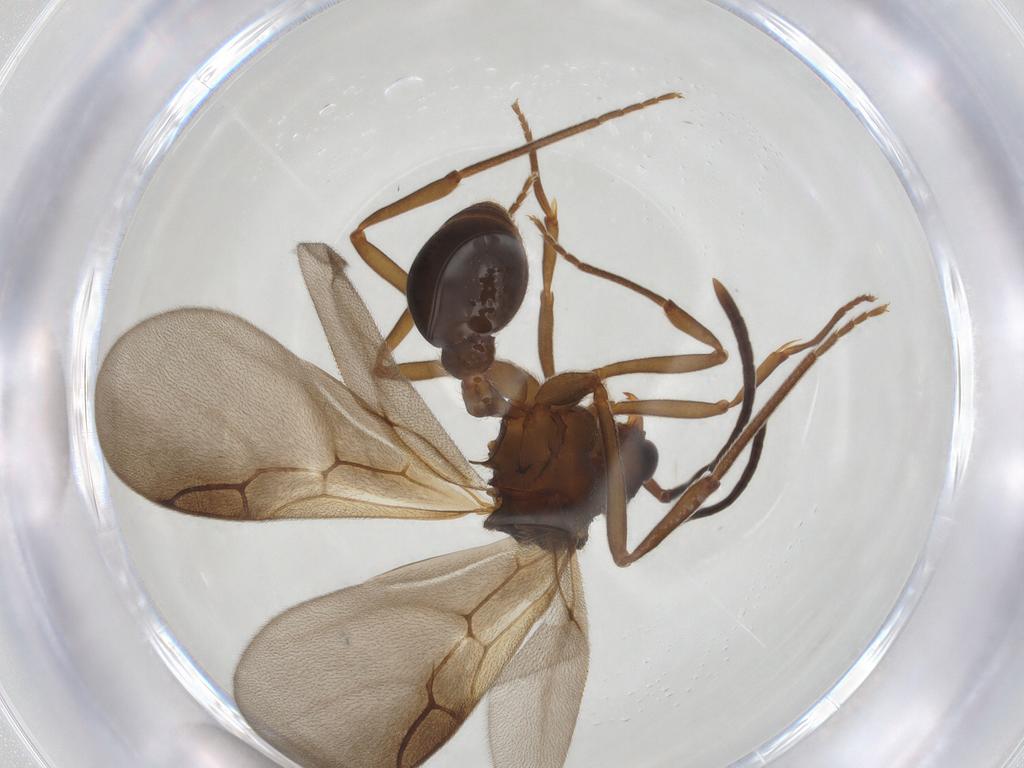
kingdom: Animalia
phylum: Arthropoda
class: Insecta
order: Hymenoptera
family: Formicidae
